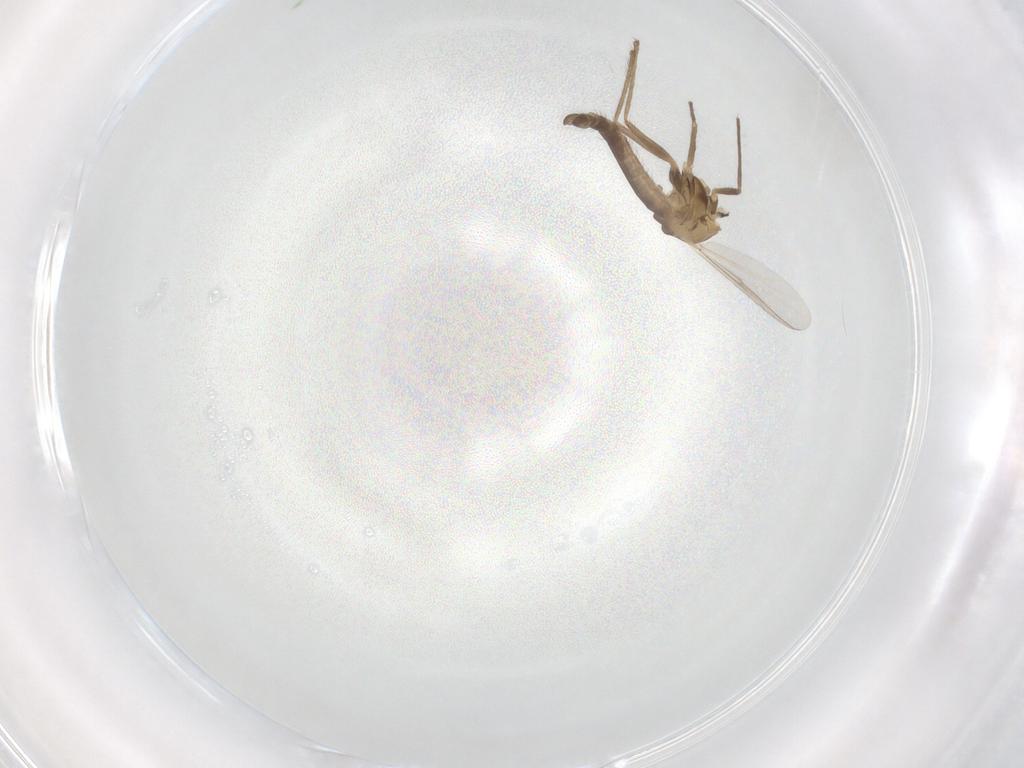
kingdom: Animalia
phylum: Arthropoda
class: Insecta
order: Diptera
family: Chironomidae
